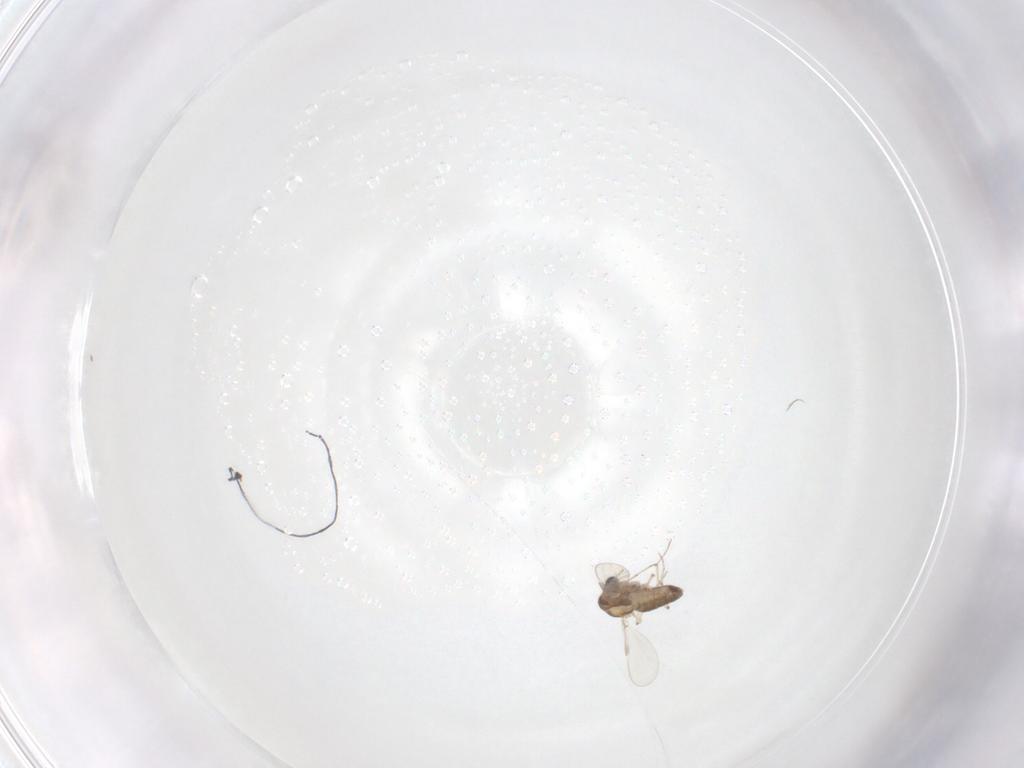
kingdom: Animalia
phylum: Arthropoda
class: Insecta
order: Diptera
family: Chironomidae
